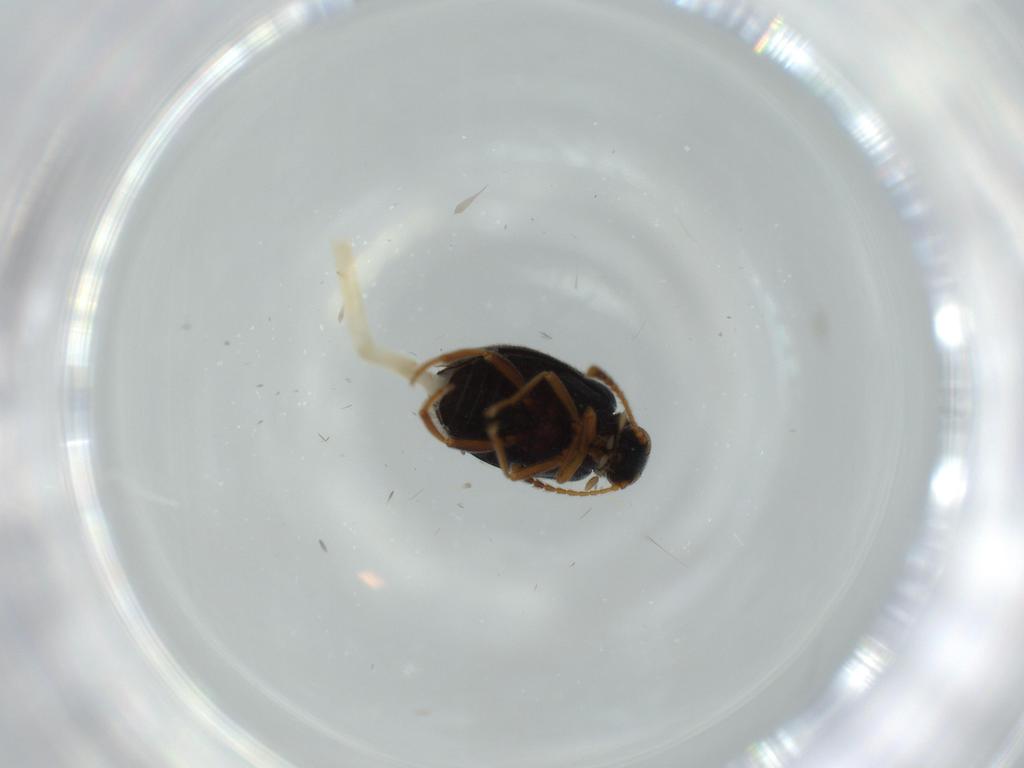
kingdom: Animalia
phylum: Arthropoda
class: Insecta
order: Coleoptera
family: Aderidae
